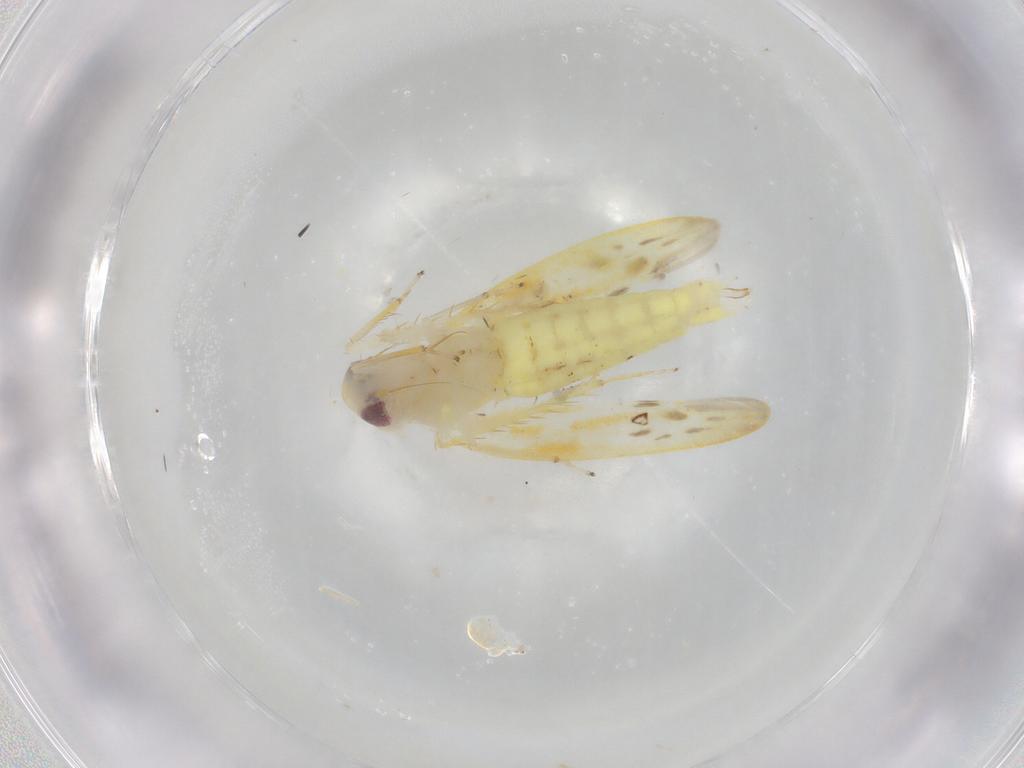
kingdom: Animalia
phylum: Arthropoda
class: Insecta
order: Hemiptera
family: Cicadellidae
